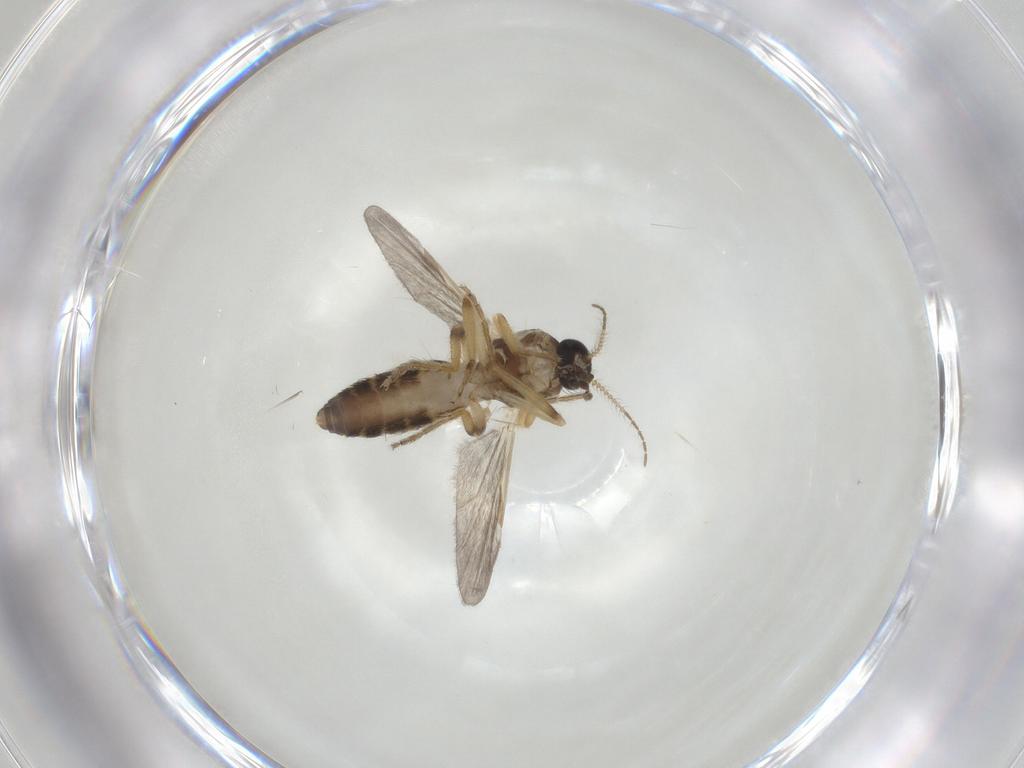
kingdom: Animalia
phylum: Arthropoda
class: Insecta
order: Diptera
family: Ceratopogonidae
